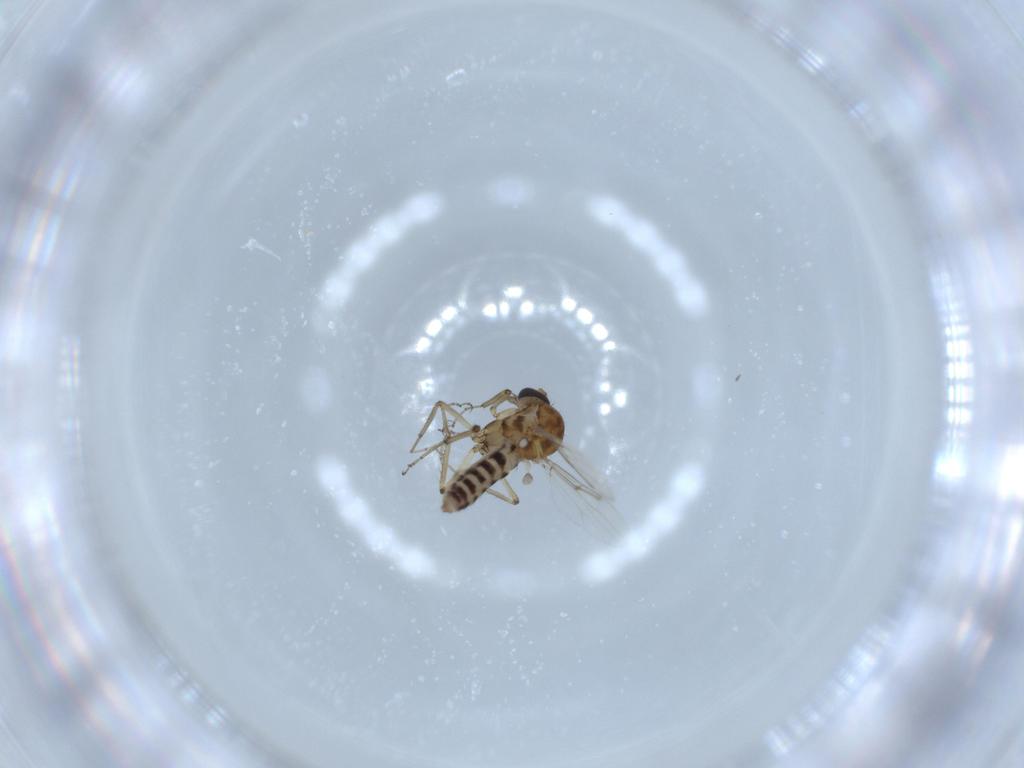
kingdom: Animalia
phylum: Arthropoda
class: Insecta
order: Diptera
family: Ceratopogonidae
